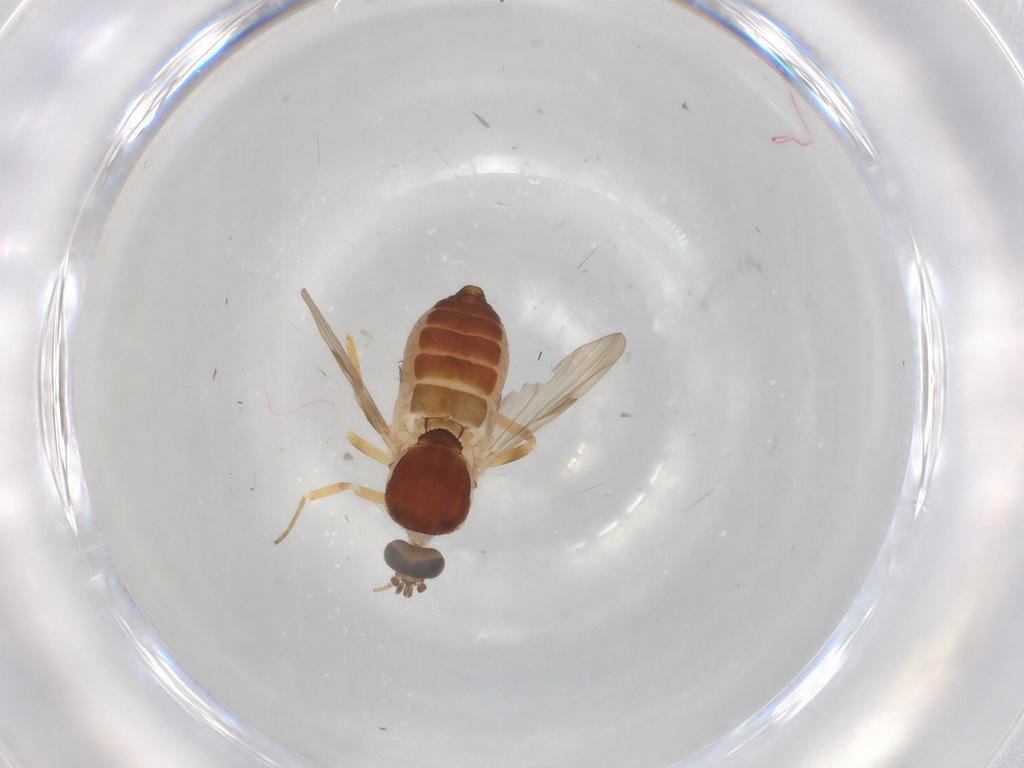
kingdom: Animalia
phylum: Arthropoda
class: Insecta
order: Diptera
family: Ceratopogonidae
